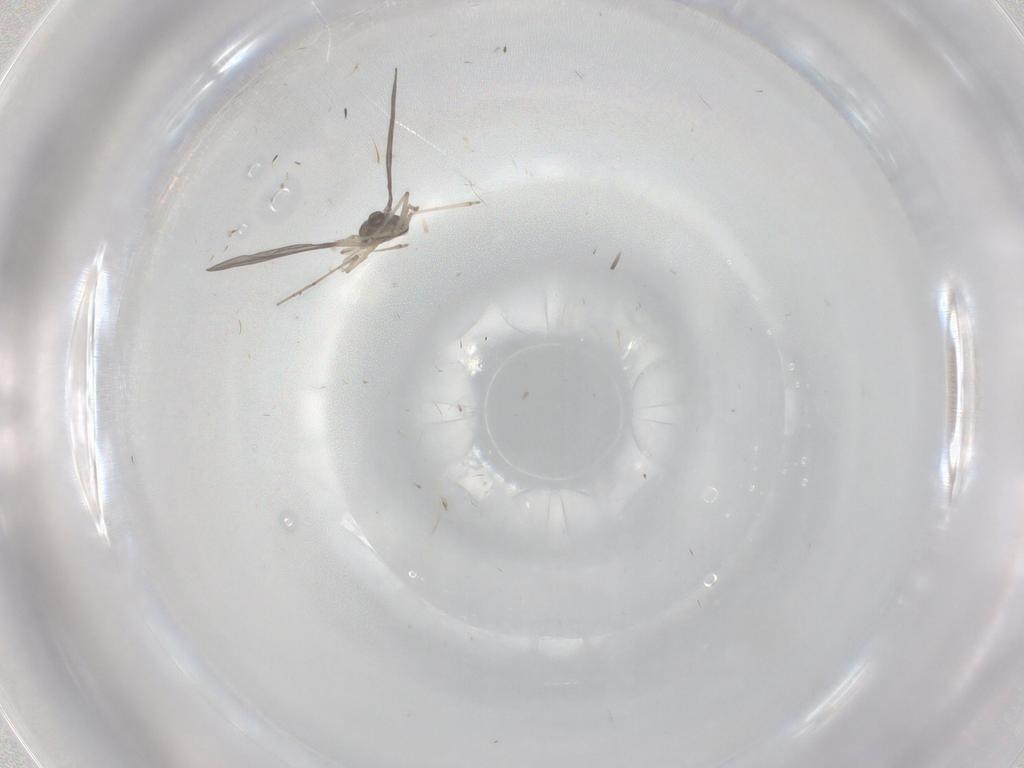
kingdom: Animalia
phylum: Arthropoda
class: Insecta
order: Diptera
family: Cecidomyiidae
